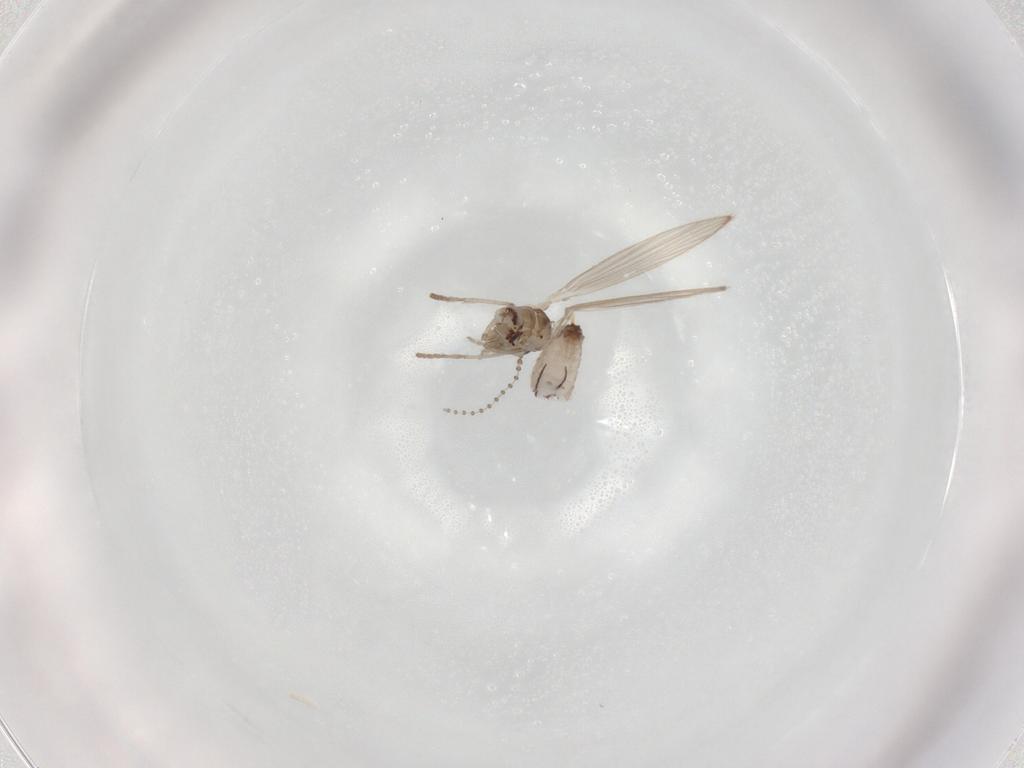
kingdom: Animalia
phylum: Arthropoda
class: Insecta
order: Diptera
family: Psychodidae
